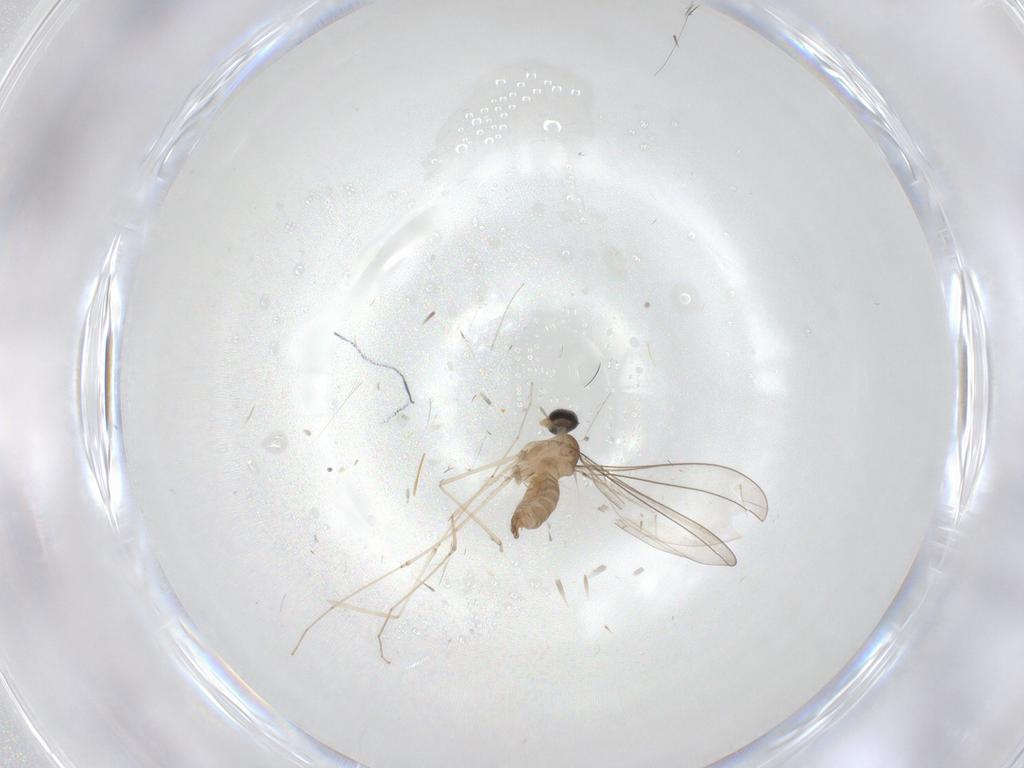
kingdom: Animalia
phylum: Arthropoda
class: Insecta
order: Diptera
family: Cecidomyiidae
